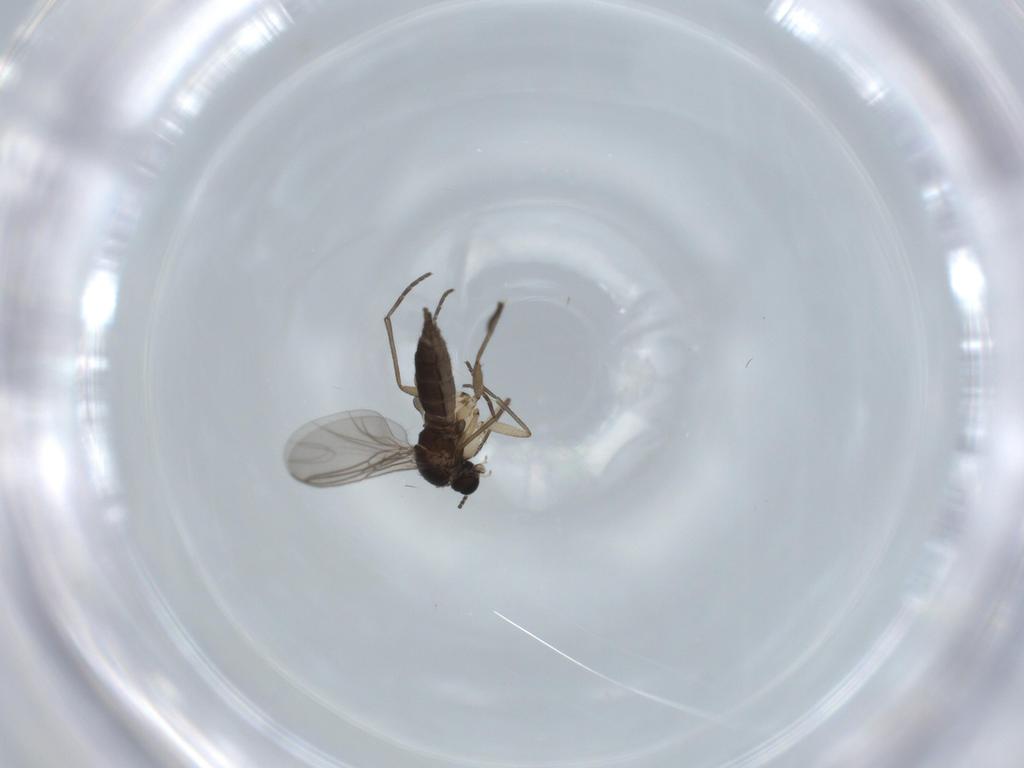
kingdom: Animalia
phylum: Arthropoda
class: Insecta
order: Diptera
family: Sciaridae
